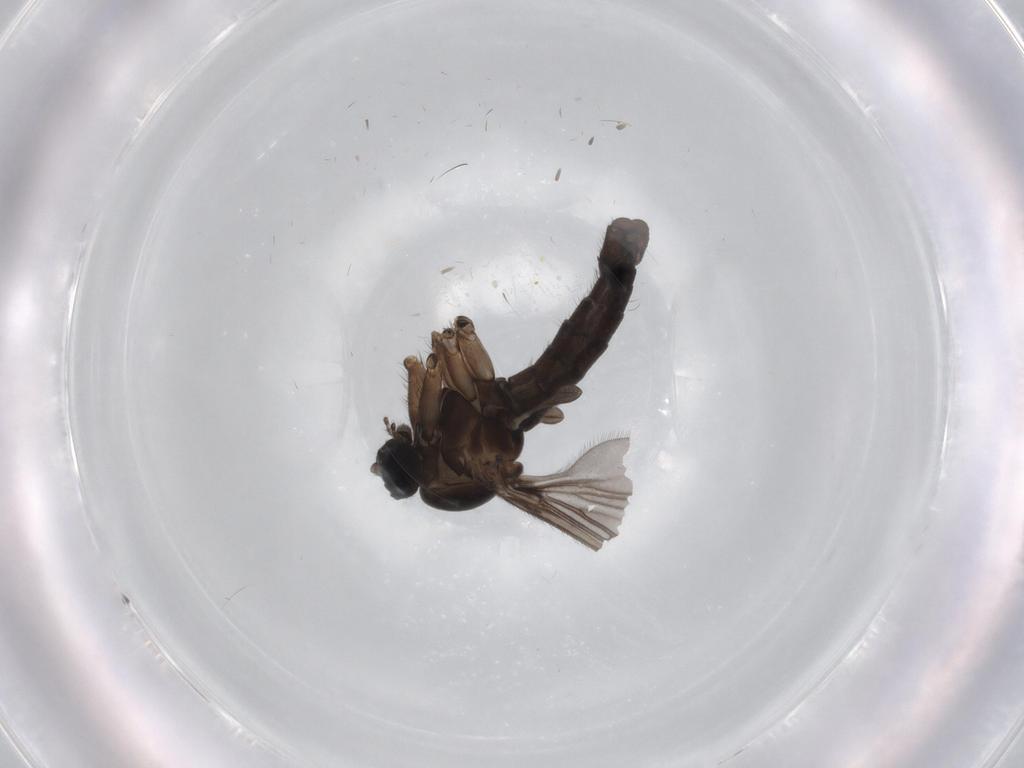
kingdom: Animalia
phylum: Arthropoda
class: Insecta
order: Diptera
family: Sciaridae
